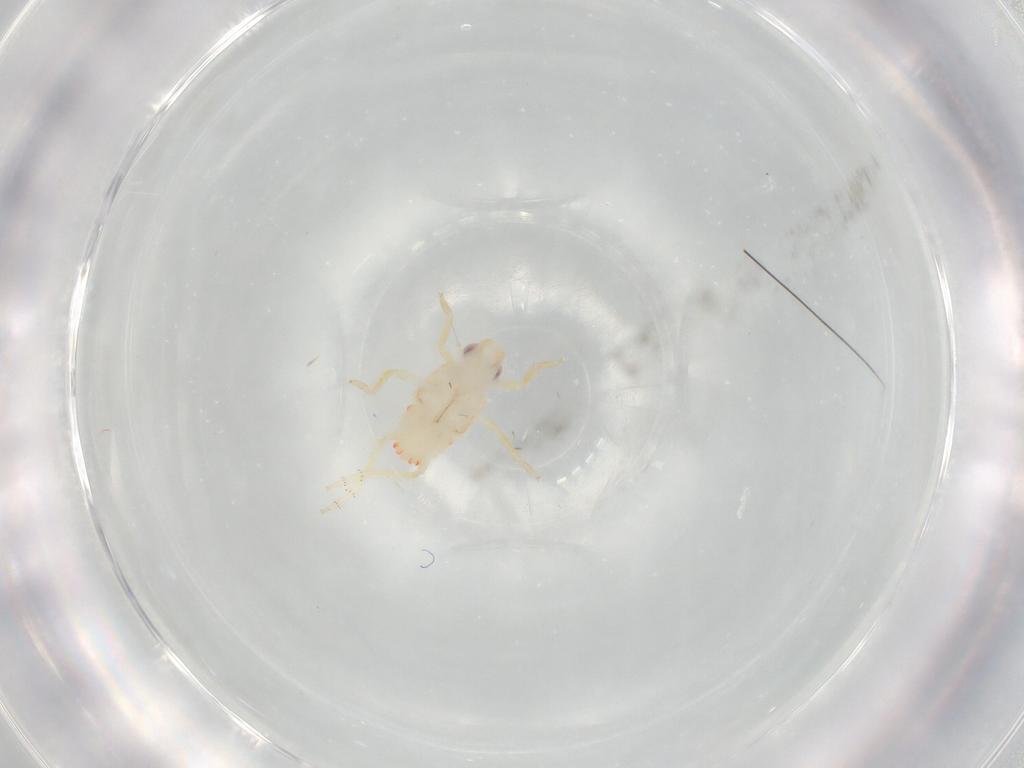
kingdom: Animalia
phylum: Arthropoda
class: Insecta
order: Hemiptera
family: Tropiduchidae
